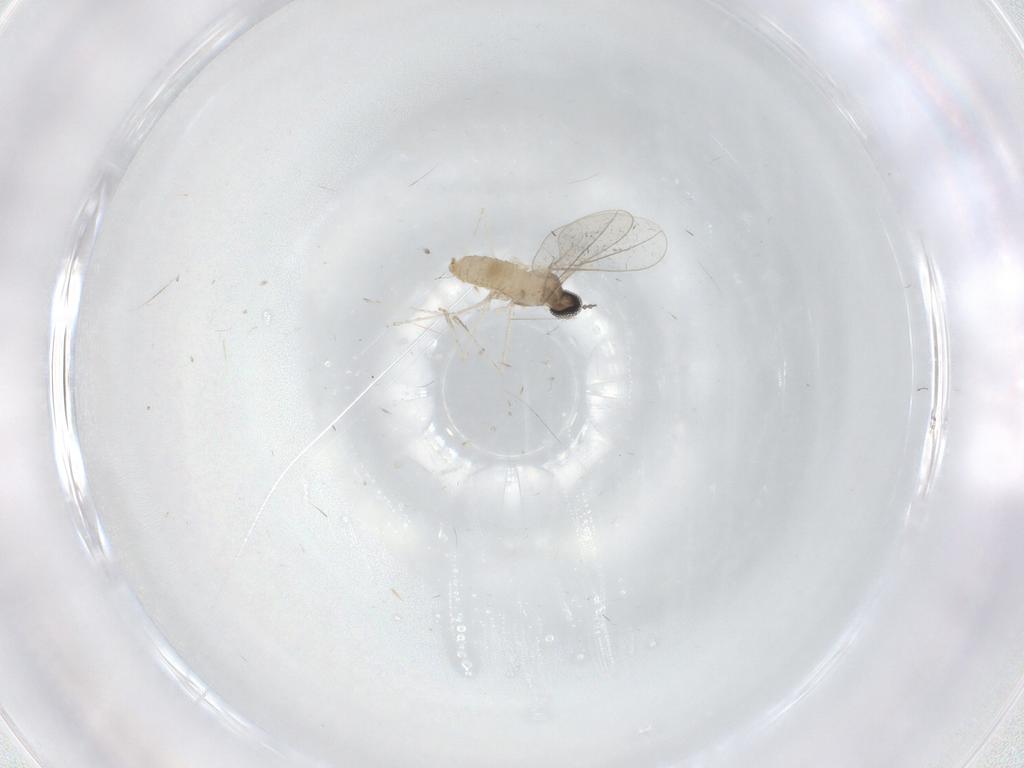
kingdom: Animalia
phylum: Arthropoda
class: Insecta
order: Diptera
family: Cecidomyiidae
